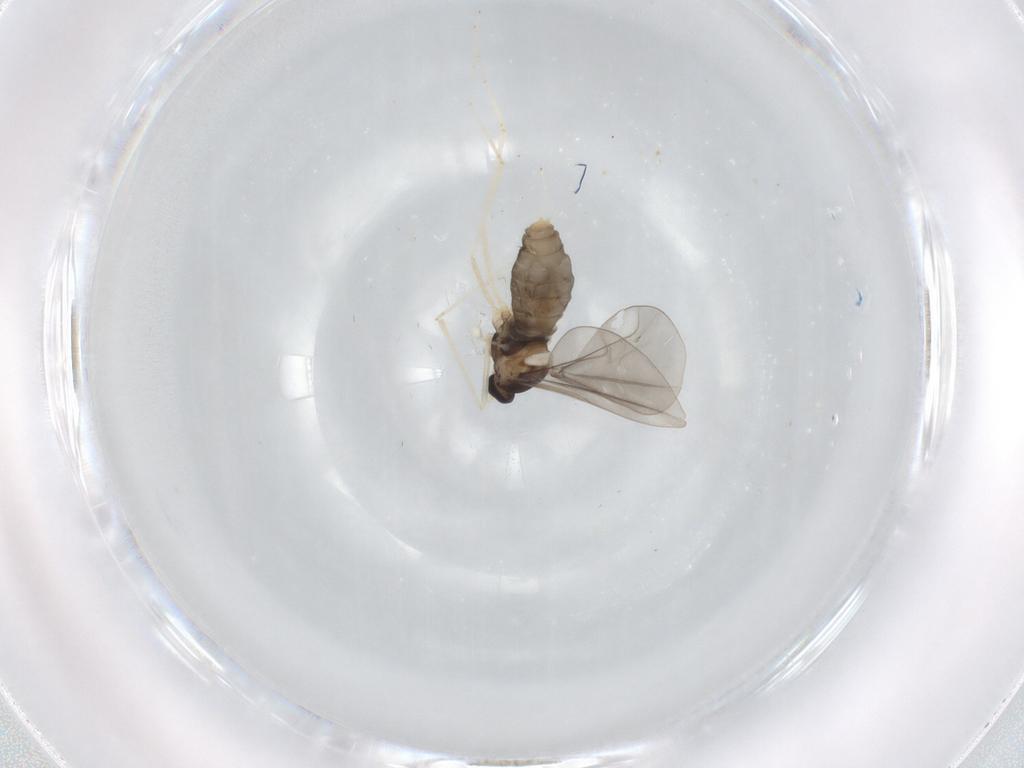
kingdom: Animalia
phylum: Arthropoda
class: Insecta
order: Diptera
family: Cecidomyiidae
